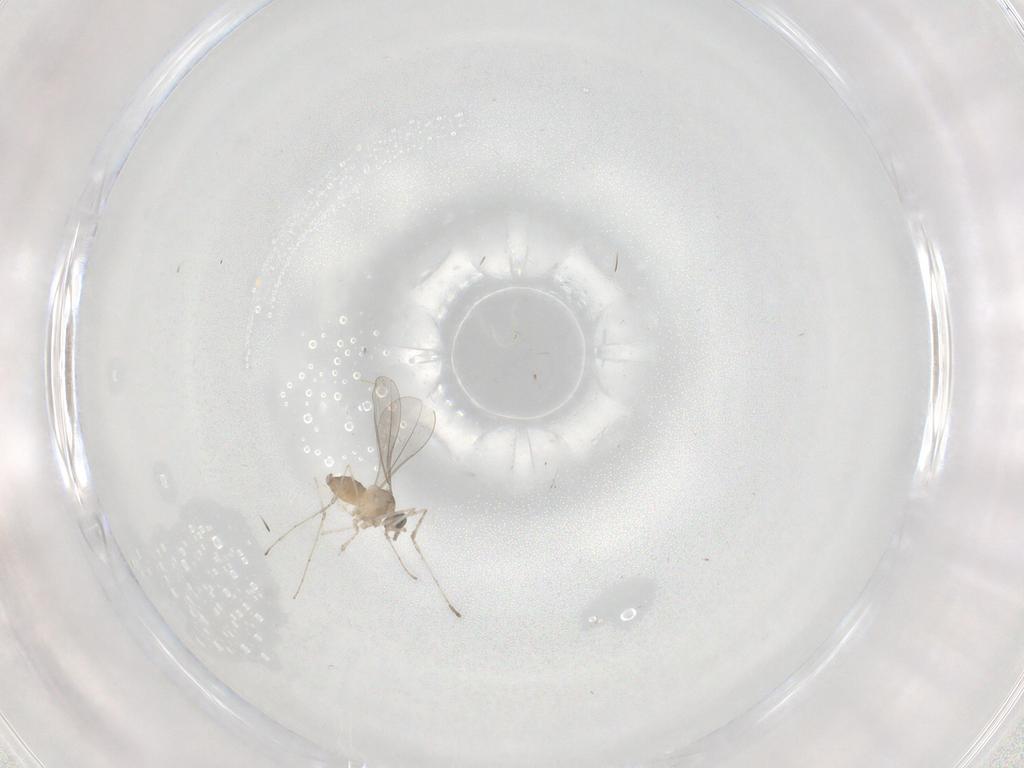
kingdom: Animalia
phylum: Arthropoda
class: Insecta
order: Diptera
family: Cecidomyiidae
